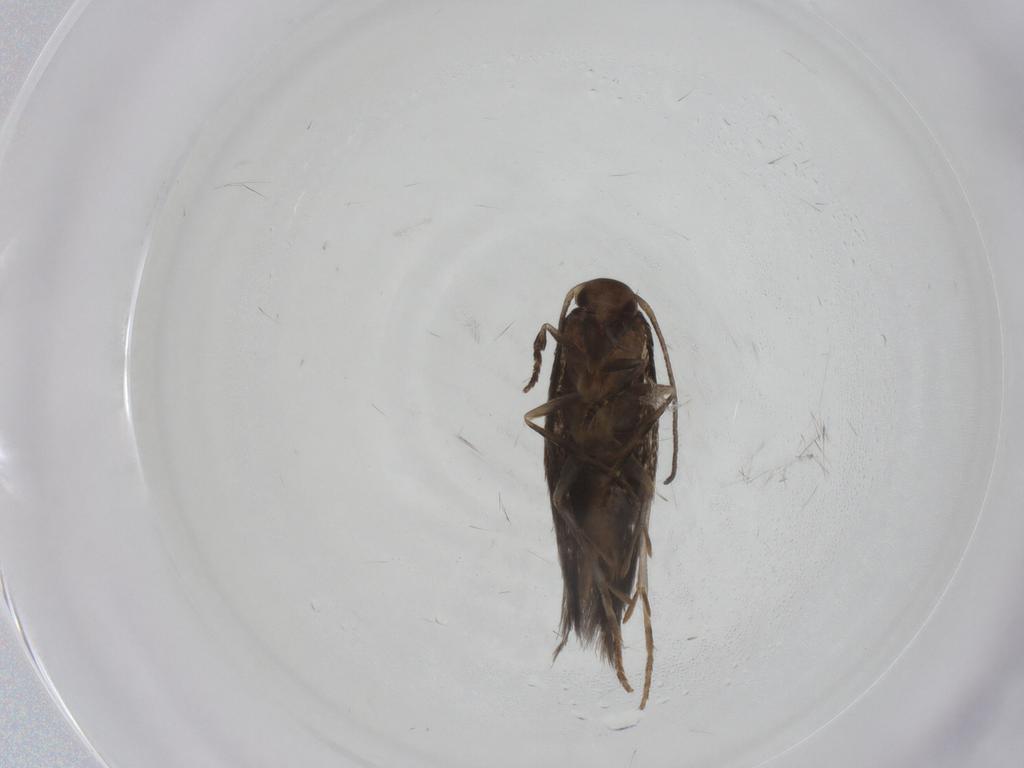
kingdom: Animalia
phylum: Arthropoda
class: Insecta
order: Lepidoptera
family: Elachistidae
